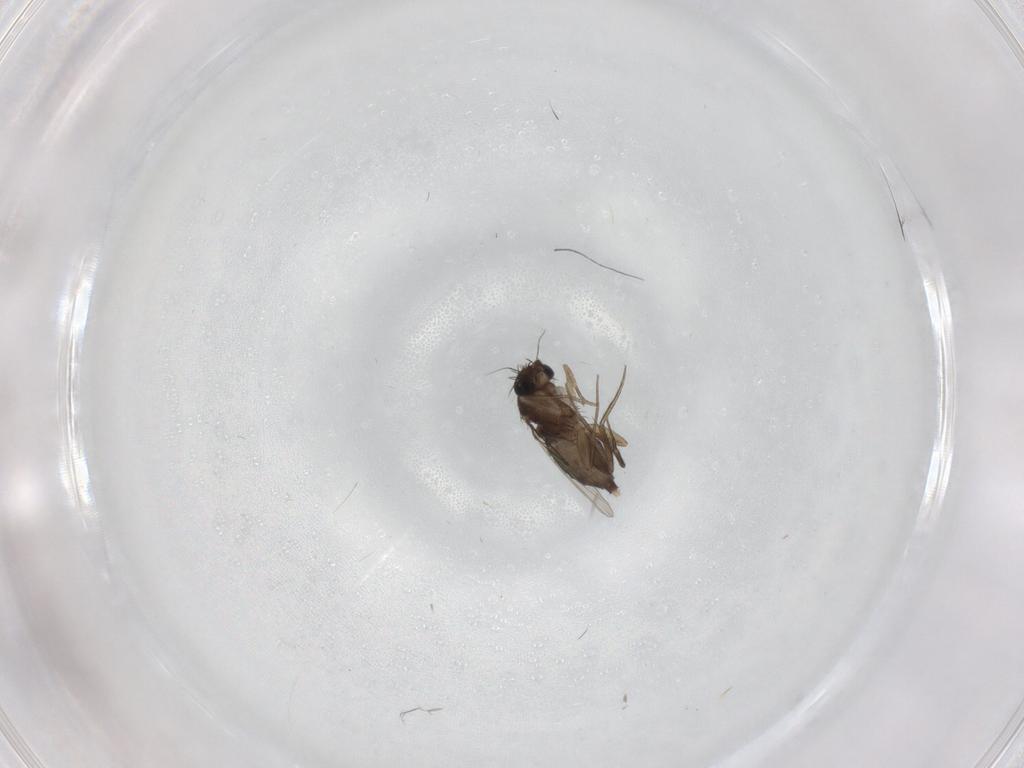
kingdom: Animalia
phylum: Arthropoda
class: Insecta
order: Diptera
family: Phoridae
